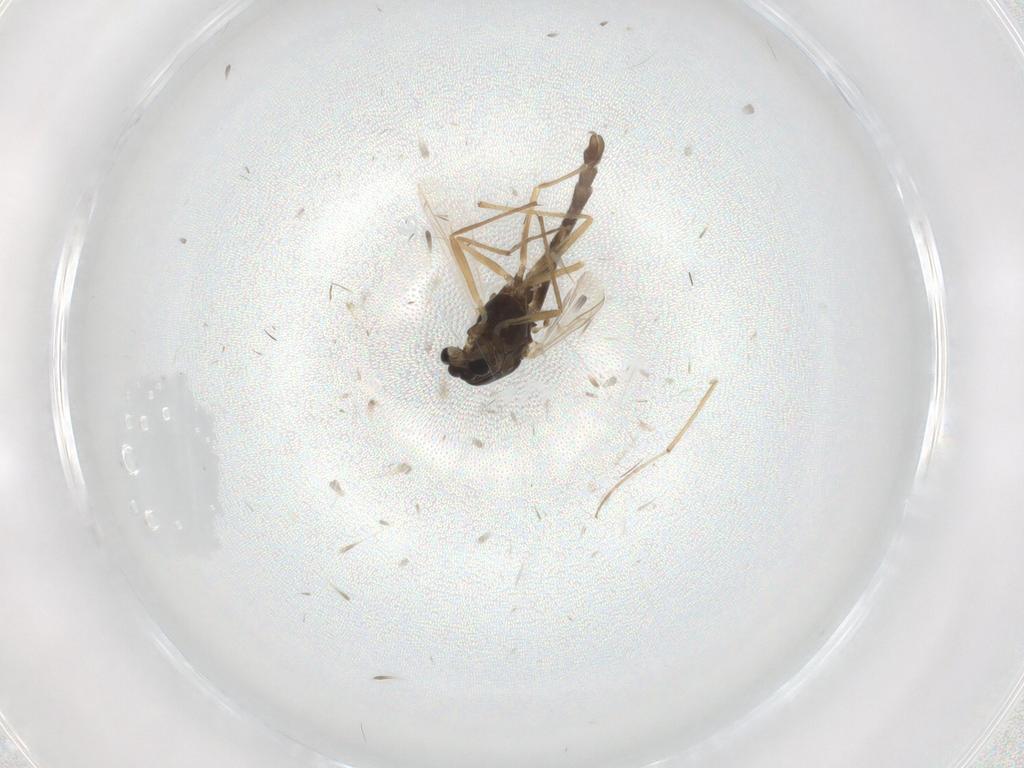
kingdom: Animalia
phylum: Arthropoda
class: Insecta
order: Diptera
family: Chironomidae
